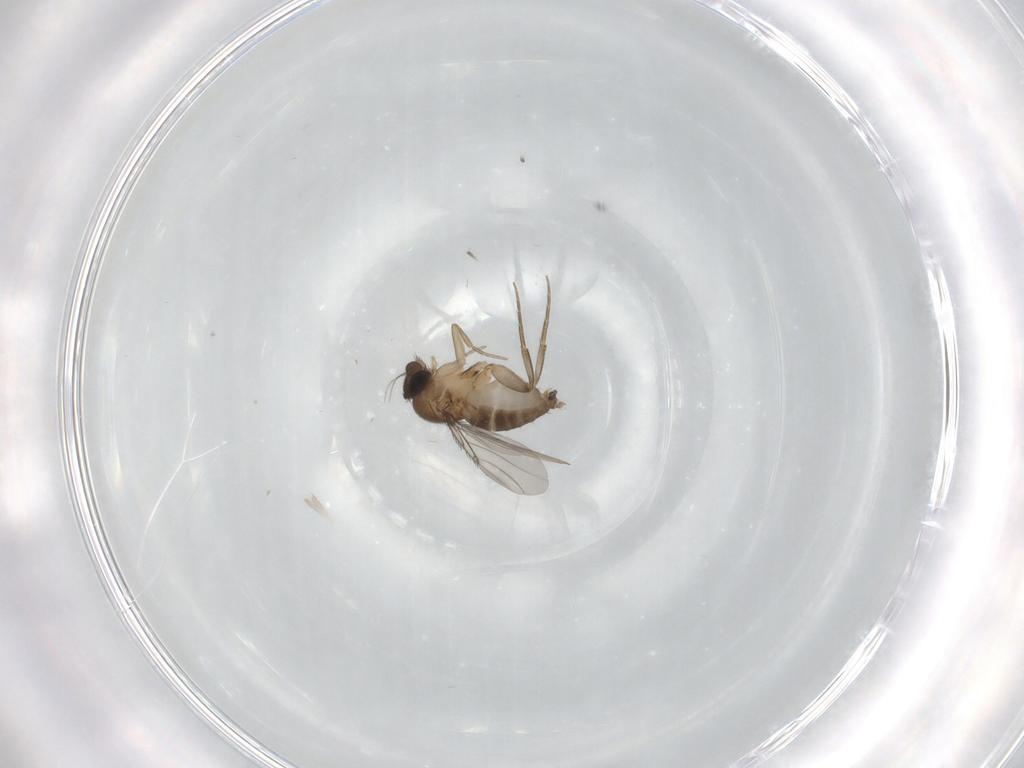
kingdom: Animalia
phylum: Arthropoda
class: Insecta
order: Diptera
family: Phoridae
